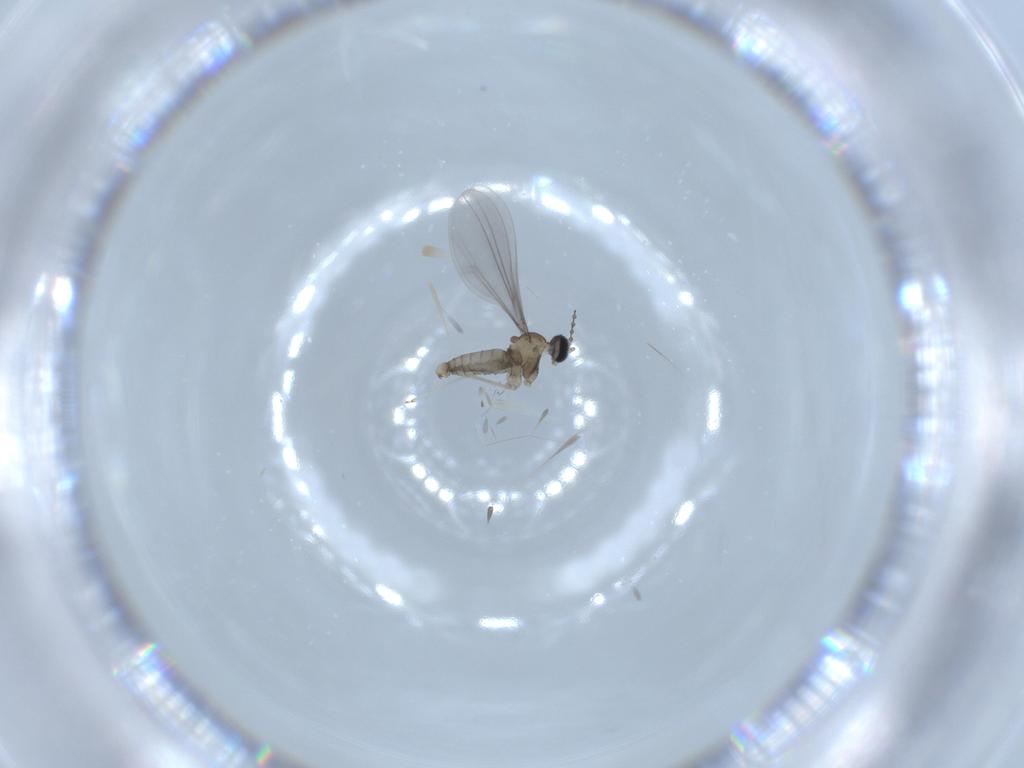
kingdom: Animalia
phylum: Arthropoda
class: Insecta
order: Diptera
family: Cecidomyiidae
